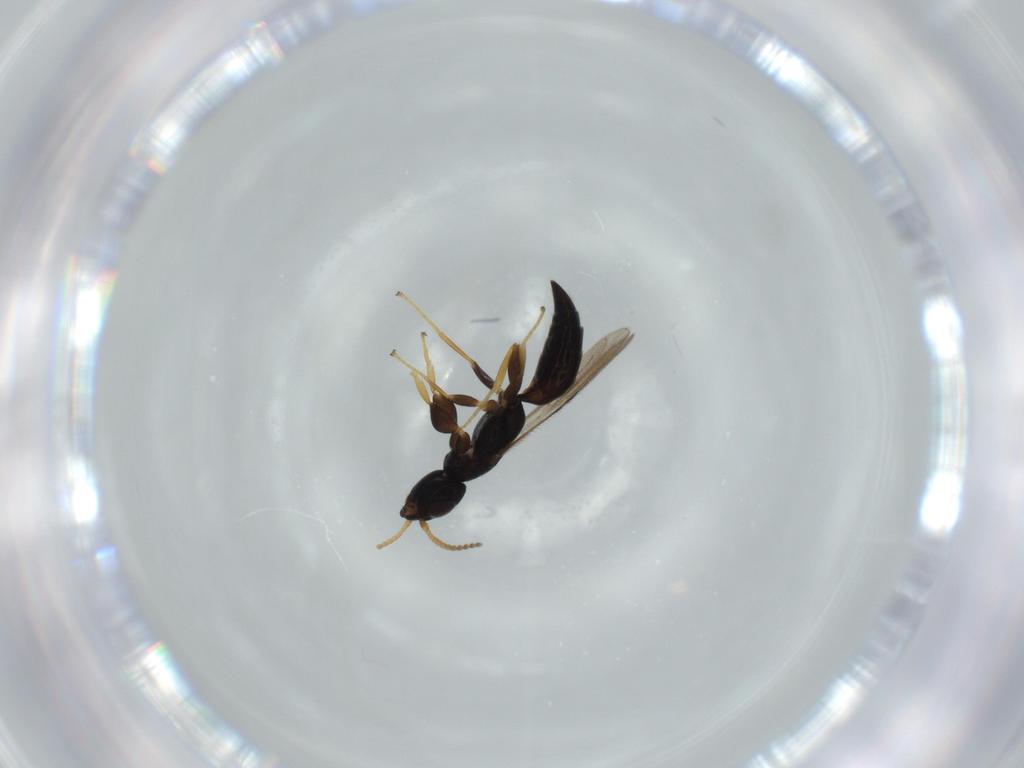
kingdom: Animalia
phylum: Arthropoda
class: Insecta
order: Hymenoptera
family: Bethylidae
